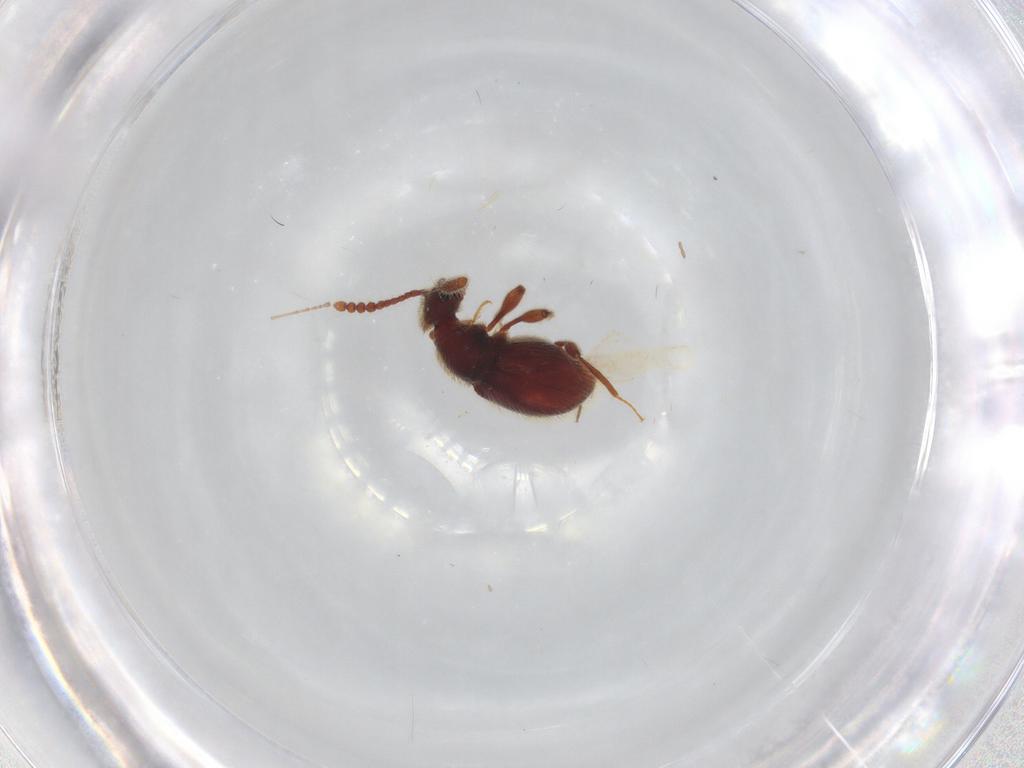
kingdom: Animalia
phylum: Arthropoda
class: Insecta
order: Coleoptera
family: Staphylinidae
